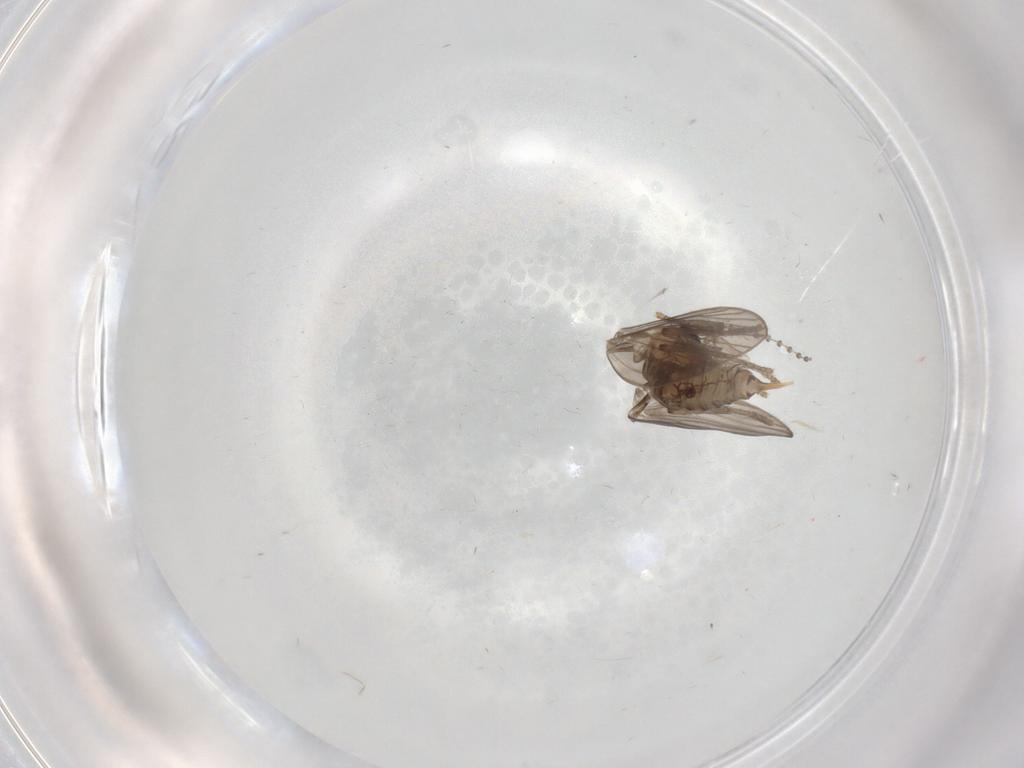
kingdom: Animalia
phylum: Arthropoda
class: Insecta
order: Diptera
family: Psychodidae
